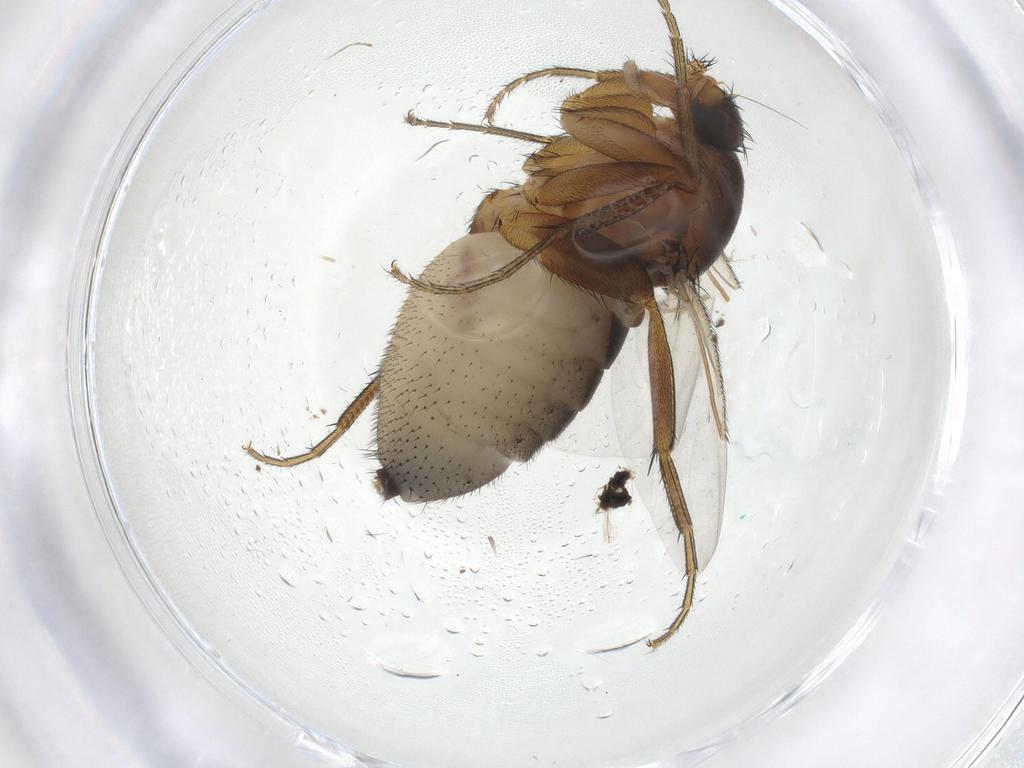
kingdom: Animalia
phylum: Arthropoda
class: Insecta
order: Diptera
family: Phoridae
